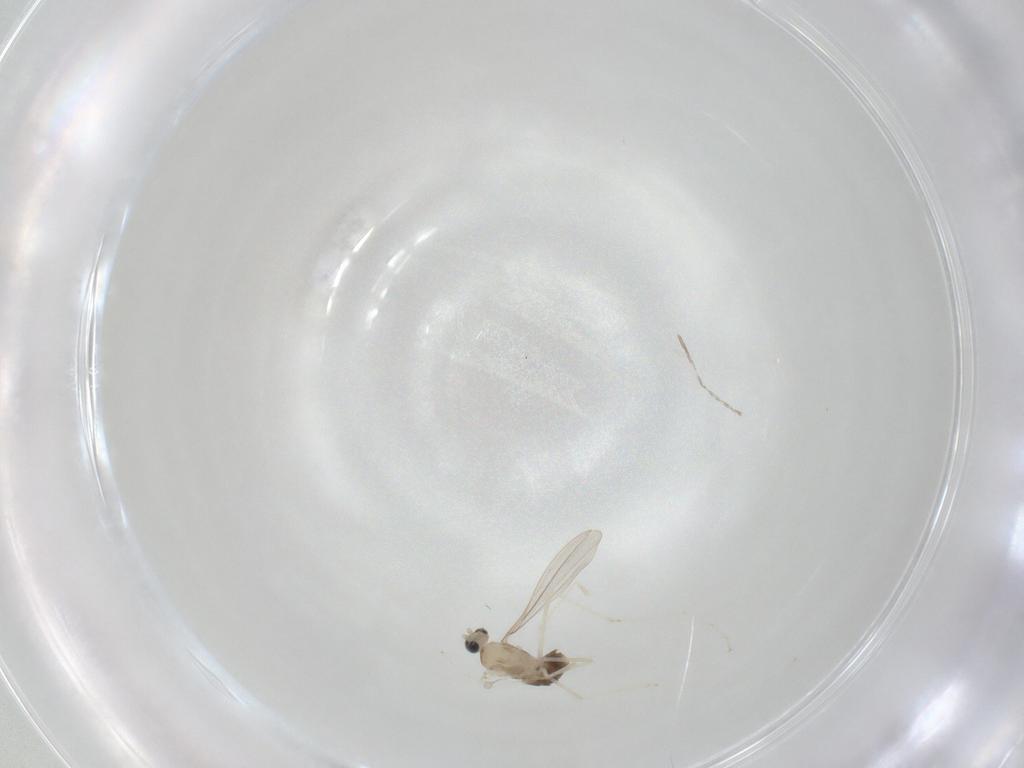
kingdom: Animalia
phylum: Arthropoda
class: Insecta
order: Diptera
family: Cecidomyiidae
